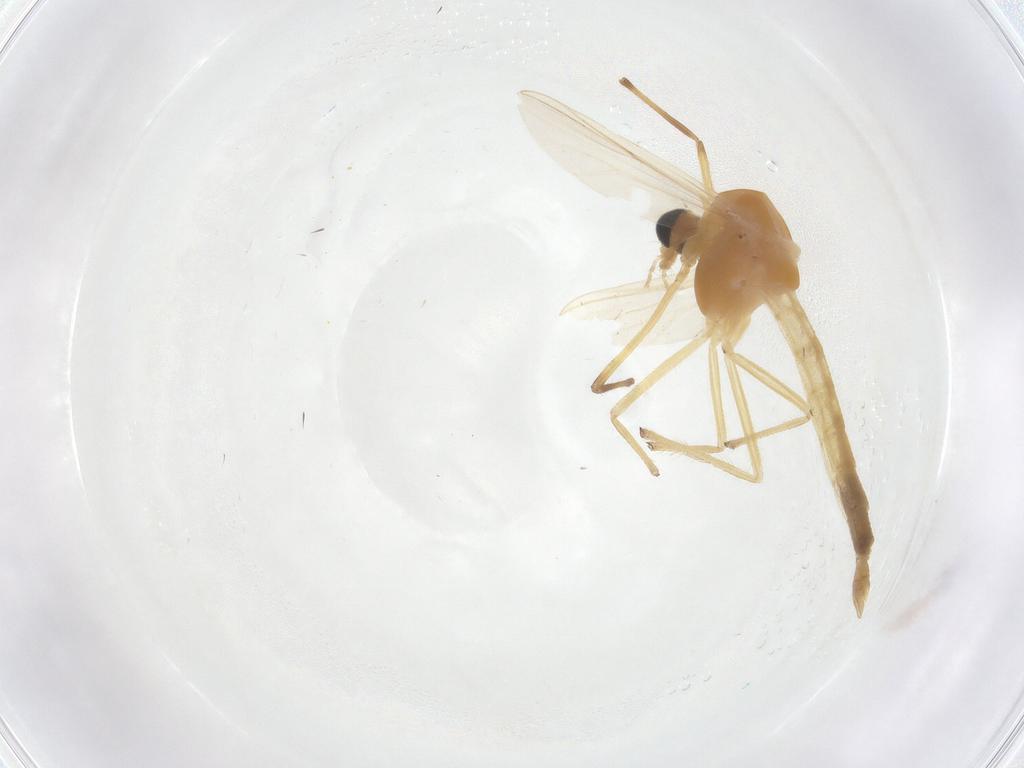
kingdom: Animalia
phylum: Arthropoda
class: Insecta
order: Diptera
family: Chironomidae
